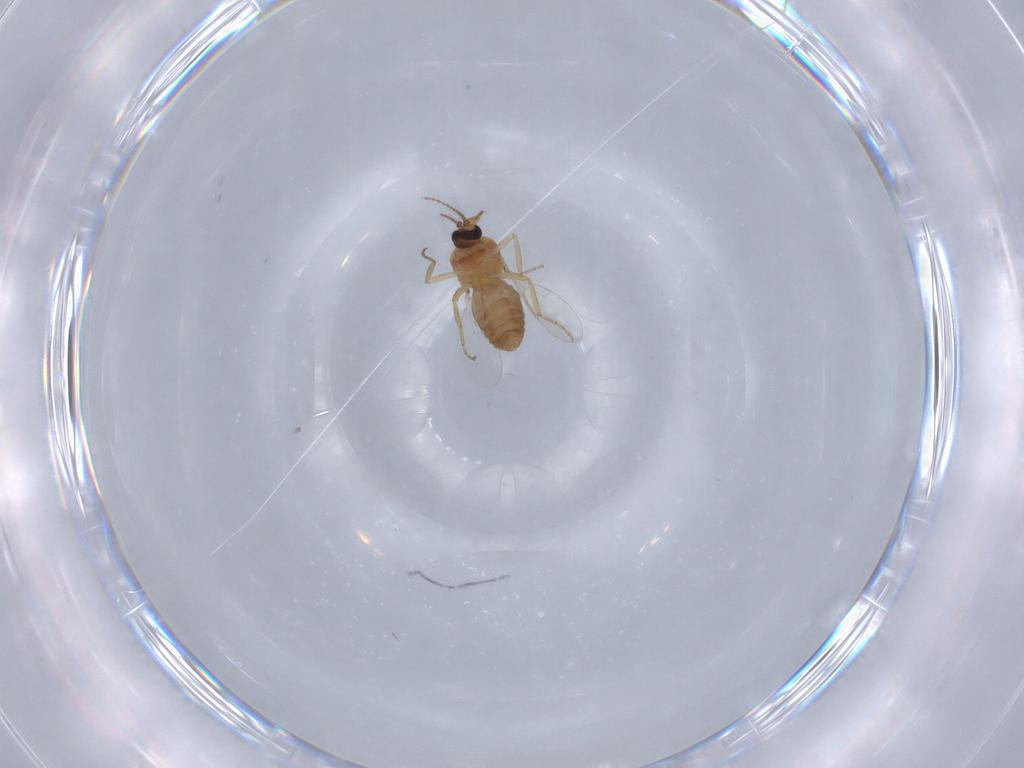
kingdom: Animalia
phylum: Arthropoda
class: Insecta
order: Diptera
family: Ceratopogonidae
